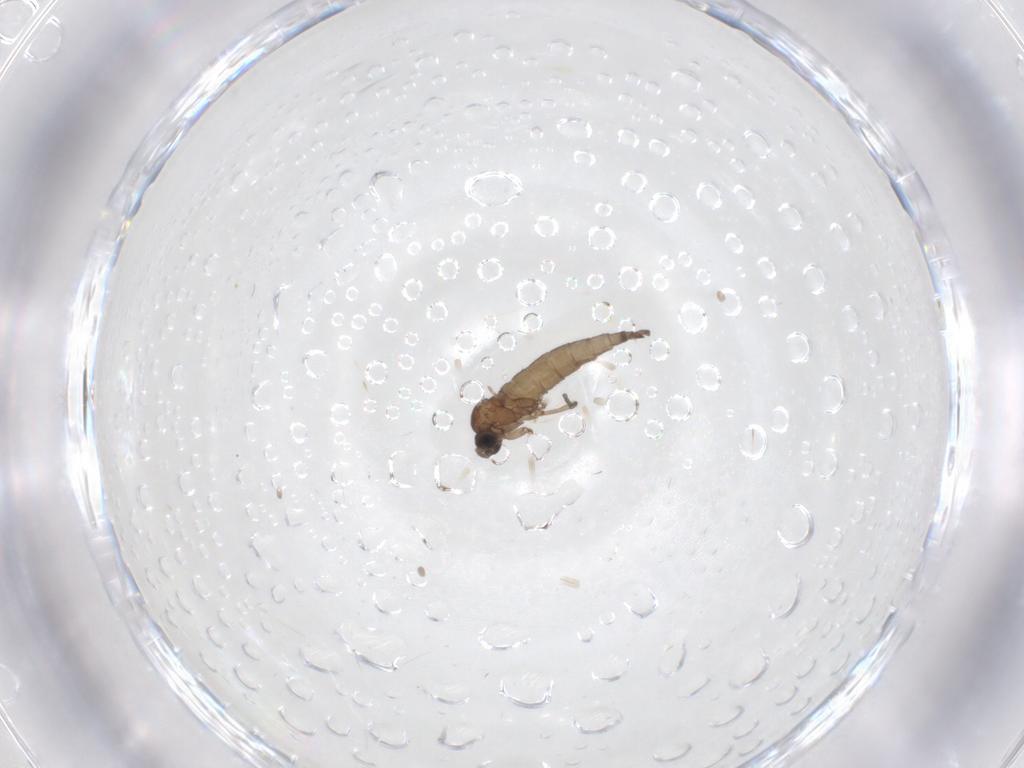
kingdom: Animalia
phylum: Arthropoda
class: Insecta
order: Diptera
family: Sciaridae
